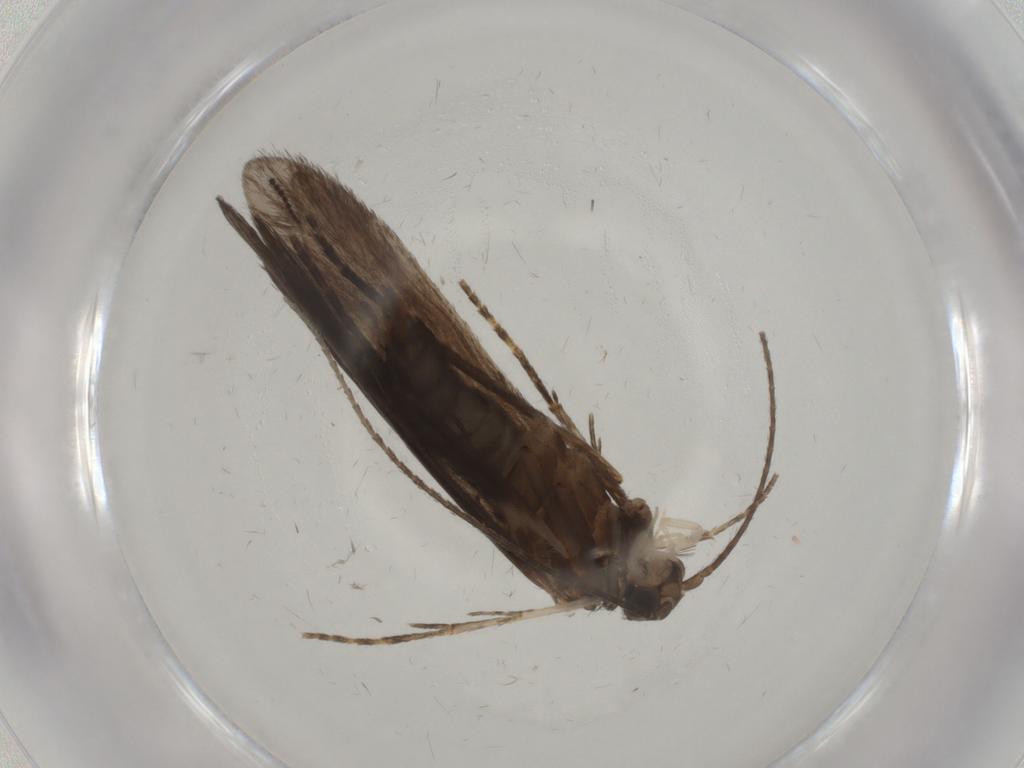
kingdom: Animalia
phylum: Arthropoda
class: Insecta
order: Trichoptera
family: Xiphocentronidae
